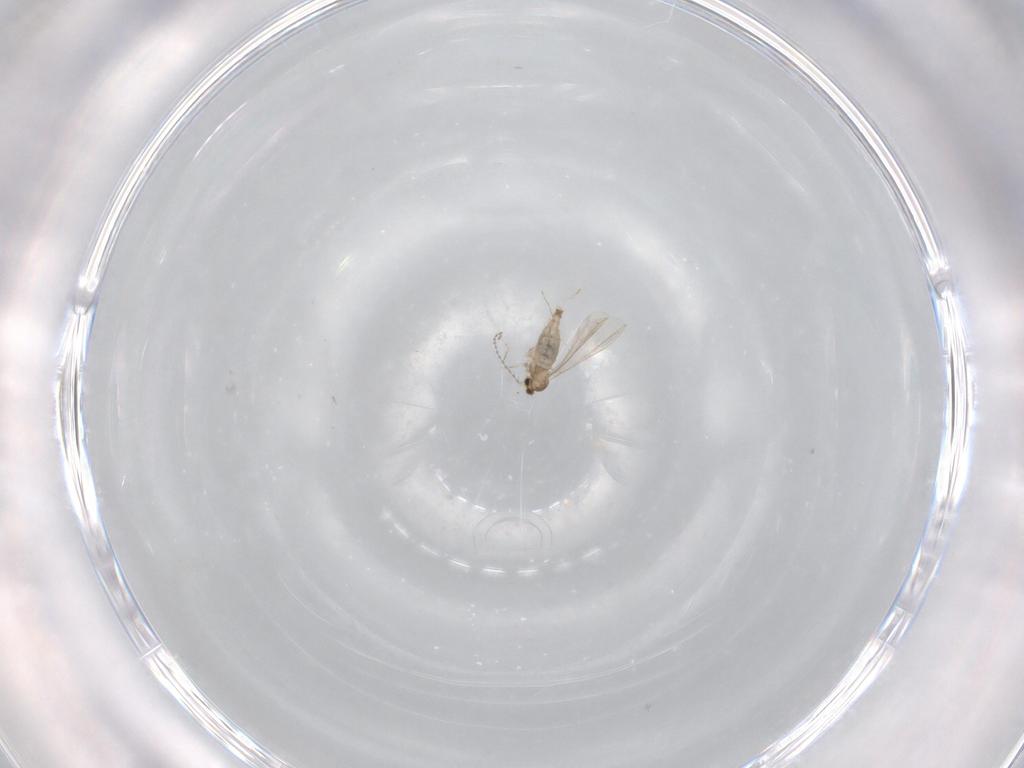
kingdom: Animalia
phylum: Arthropoda
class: Insecta
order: Diptera
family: Cecidomyiidae
